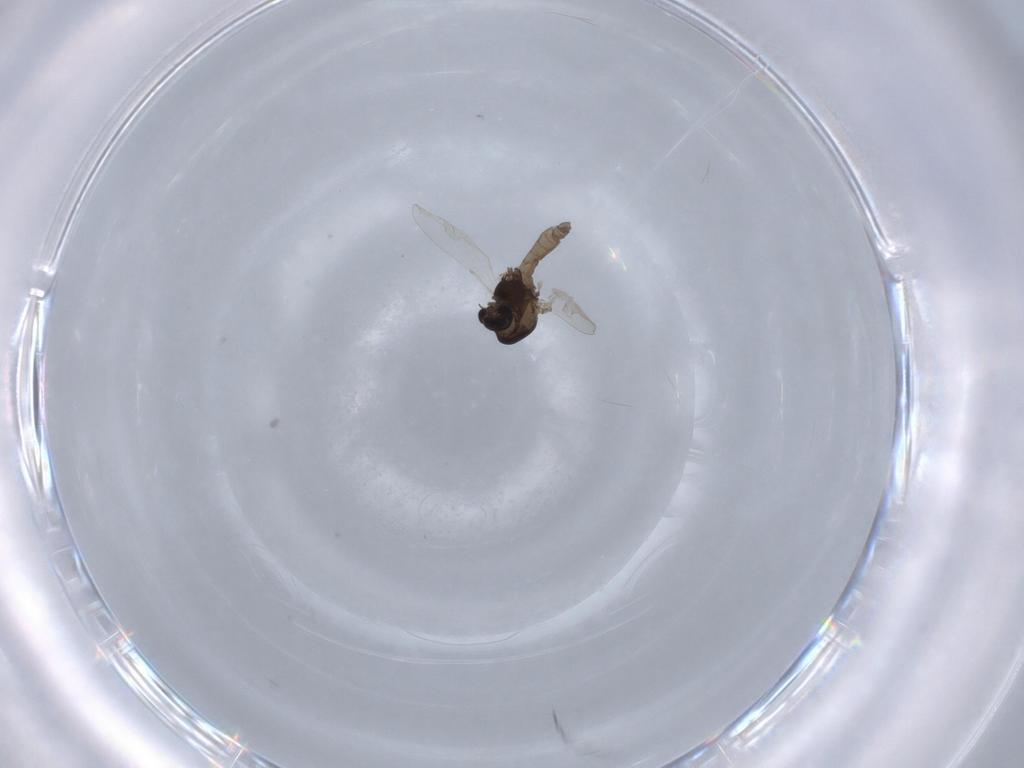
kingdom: Animalia
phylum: Arthropoda
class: Insecta
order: Diptera
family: Chironomidae
